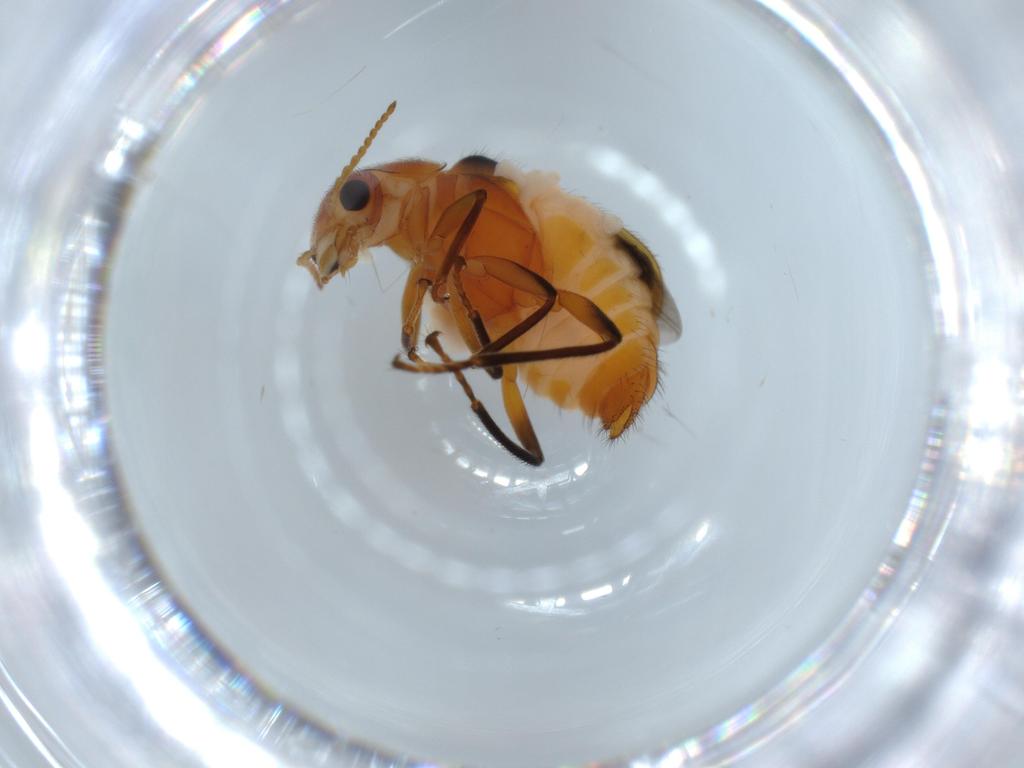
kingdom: Animalia
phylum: Arthropoda
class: Insecta
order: Coleoptera
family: Melyridae
